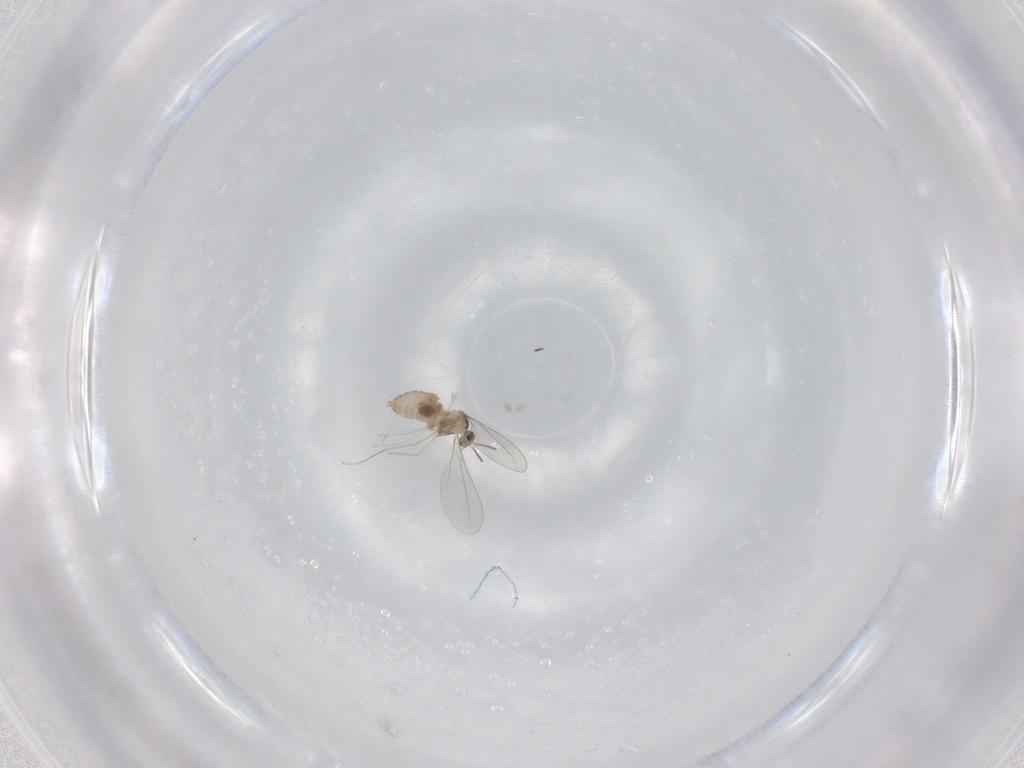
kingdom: Animalia
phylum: Arthropoda
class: Insecta
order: Diptera
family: Cecidomyiidae
